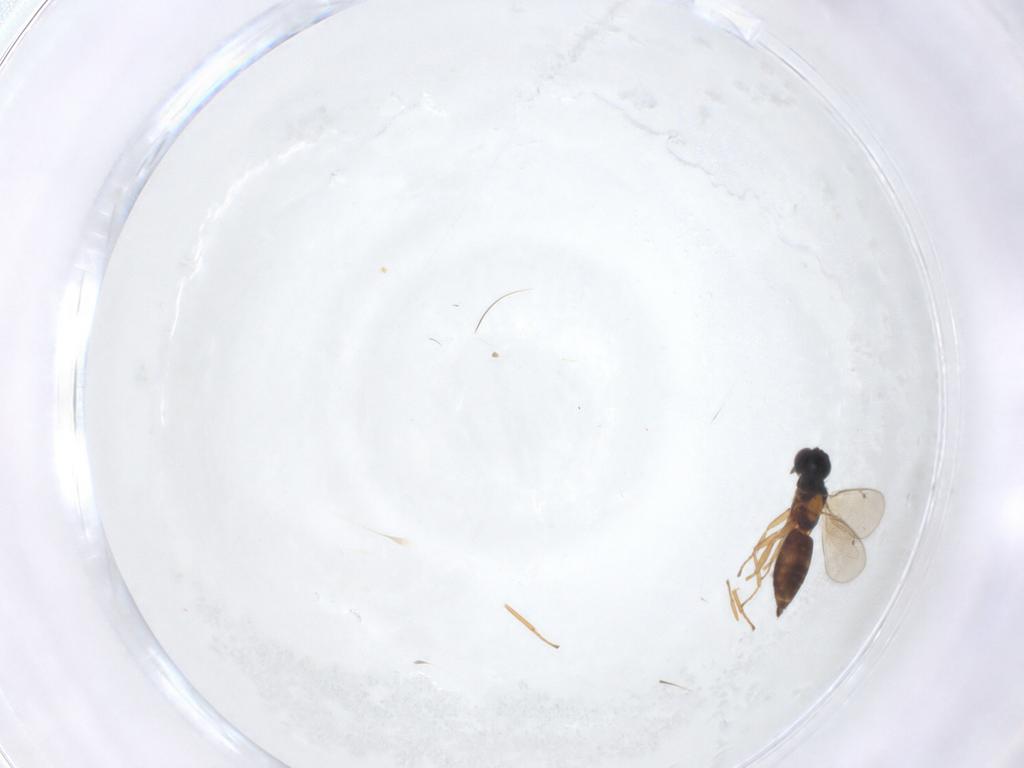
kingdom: Animalia
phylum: Arthropoda
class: Insecta
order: Hymenoptera
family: Eulophidae
